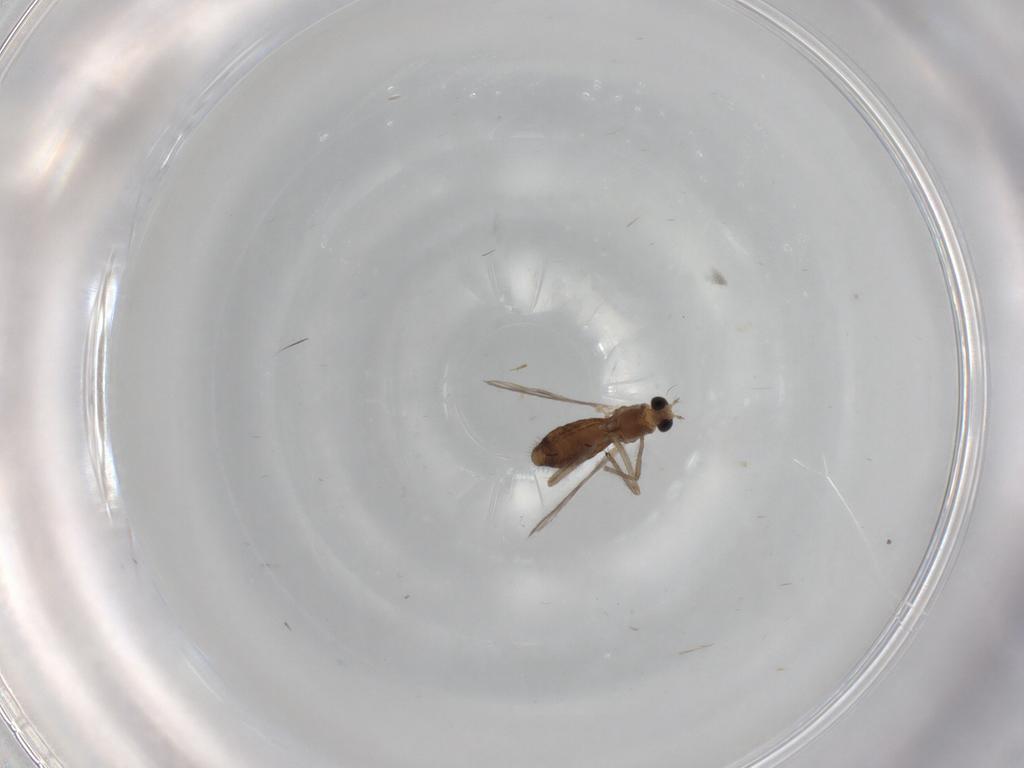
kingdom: Animalia
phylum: Arthropoda
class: Insecta
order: Diptera
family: Chironomidae
